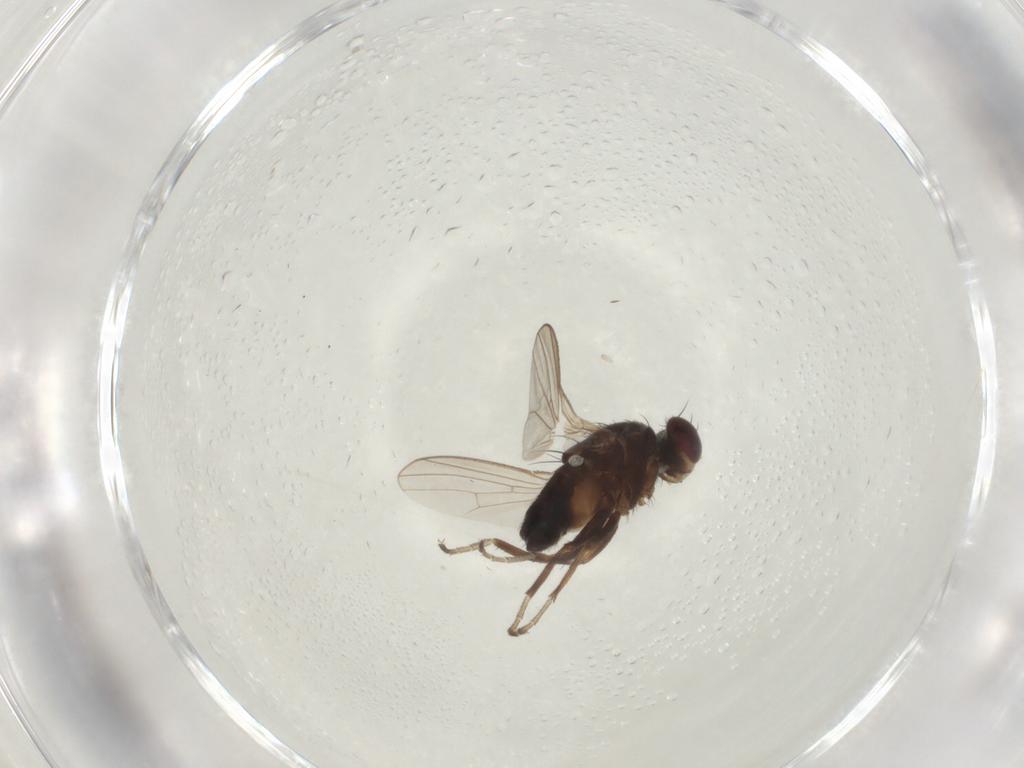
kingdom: Animalia
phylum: Arthropoda
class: Insecta
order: Diptera
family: Heleomyzidae
